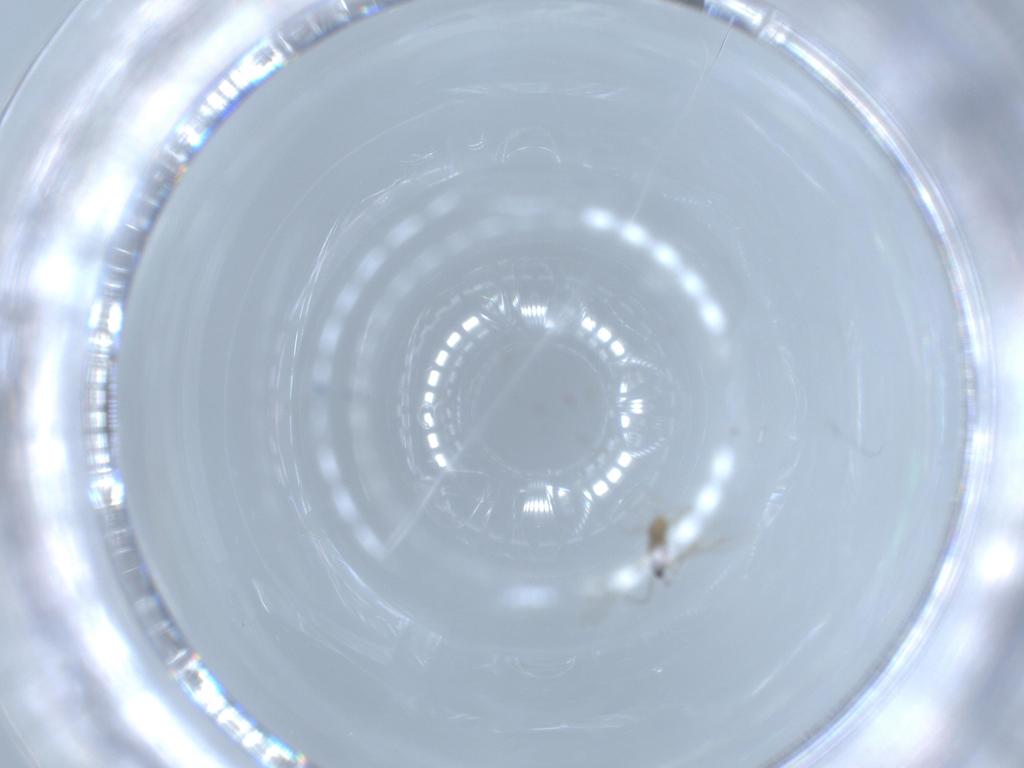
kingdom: Animalia
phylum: Arthropoda
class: Insecta
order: Diptera
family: Cecidomyiidae
